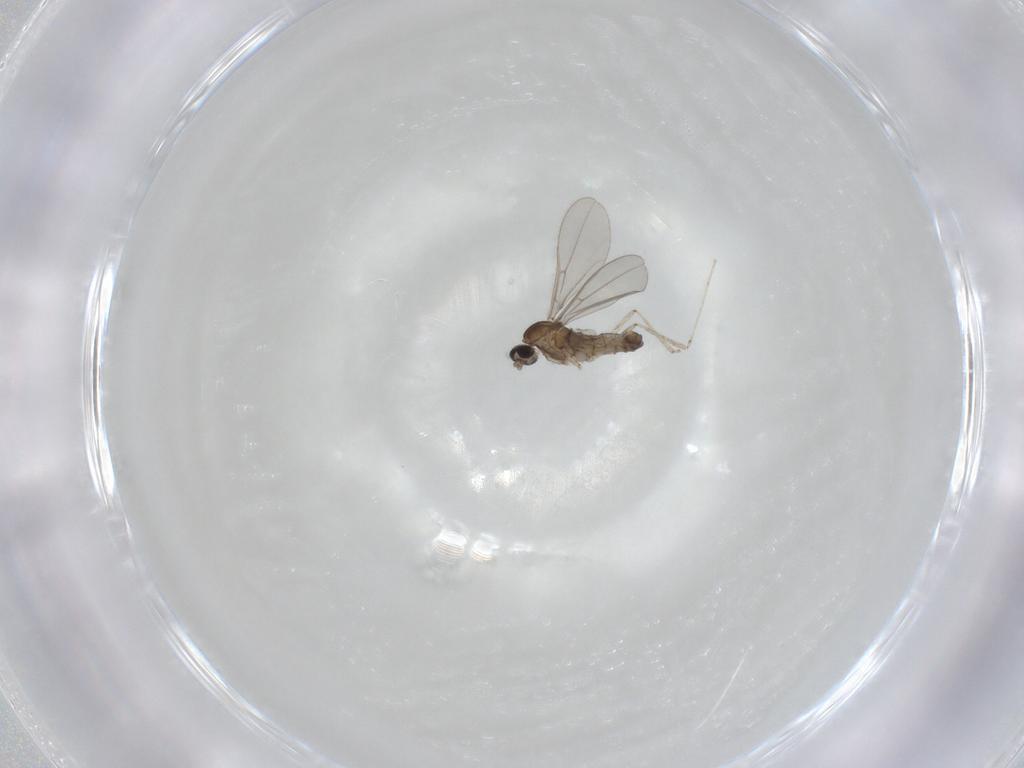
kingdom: Animalia
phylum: Arthropoda
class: Insecta
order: Diptera
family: Cecidomyiidae
